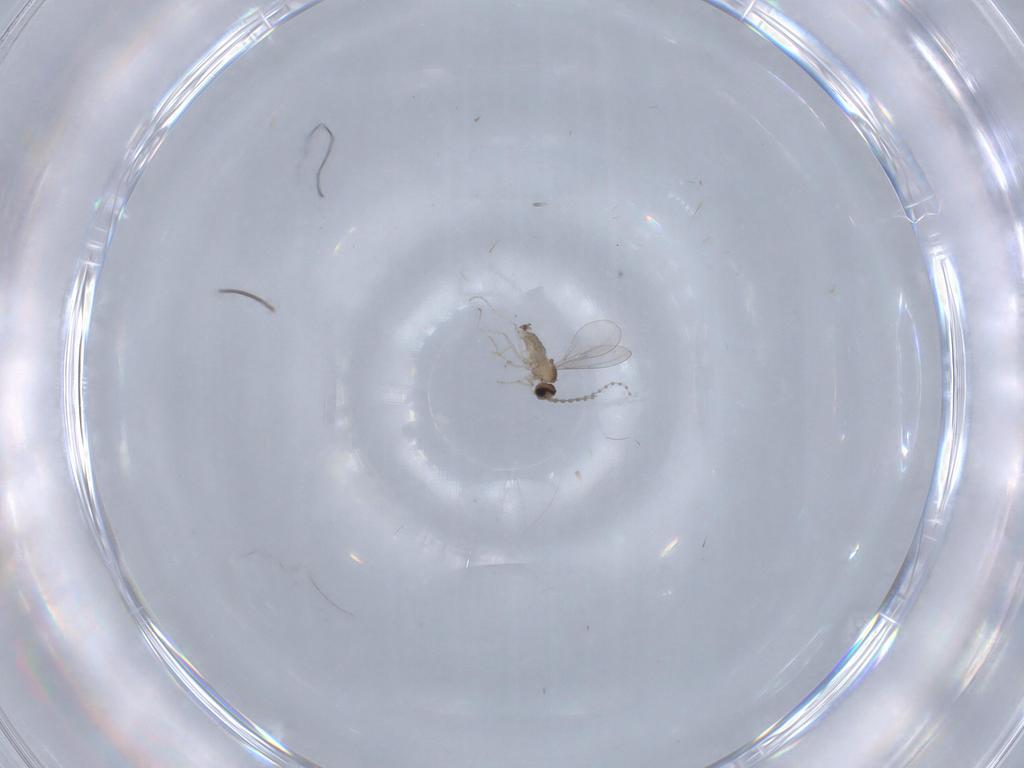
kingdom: Animalia
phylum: Arthropoda
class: Insecta
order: Diptera
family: Cecidomyiidae
